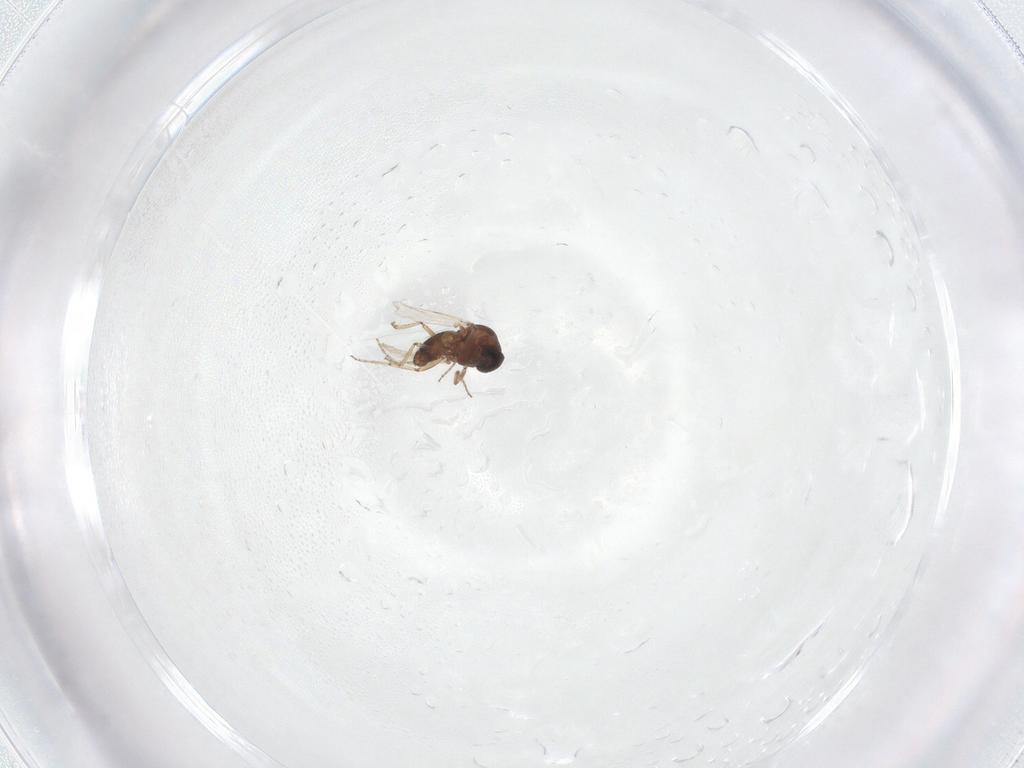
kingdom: Animalia
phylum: Arthropoda
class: Insecta
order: Diptera
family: Ceratopogonidae
